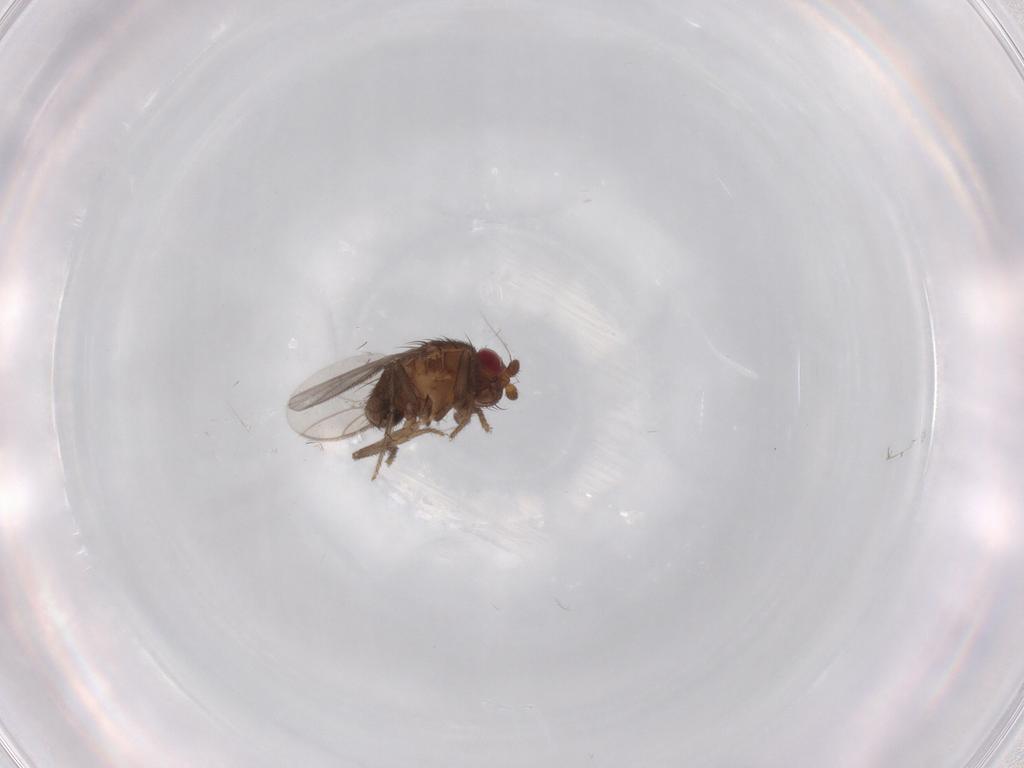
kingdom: Animalia
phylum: Arthropoda
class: Insecta
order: Diptera
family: Sphaeroceridae
